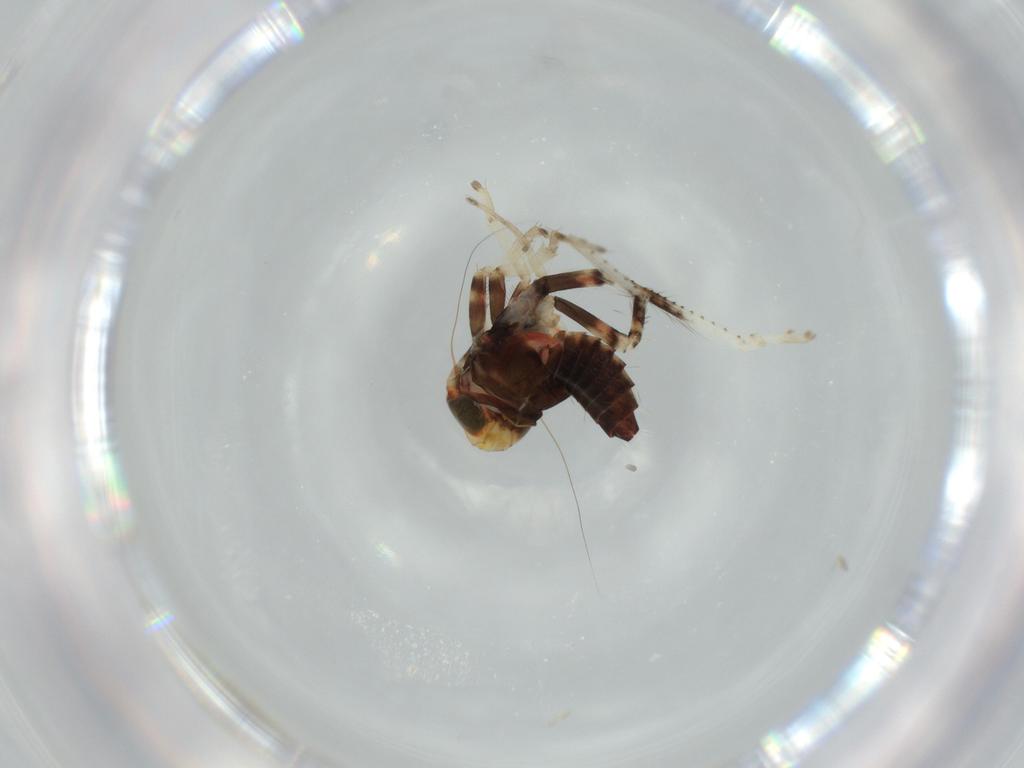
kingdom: Animalia
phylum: Arthropoda
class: Insecta
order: Hemiptera
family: Cicadellidae
